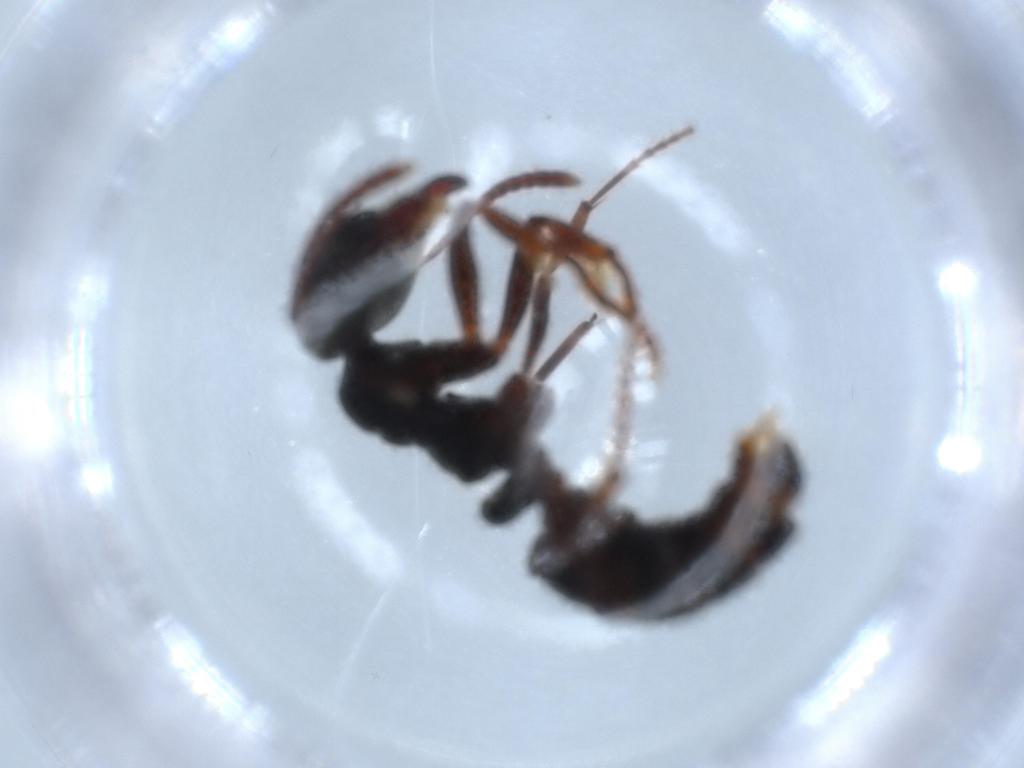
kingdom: Animalia
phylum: Arthropoda
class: Insecta
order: Hymenoptera
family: Formicidae
